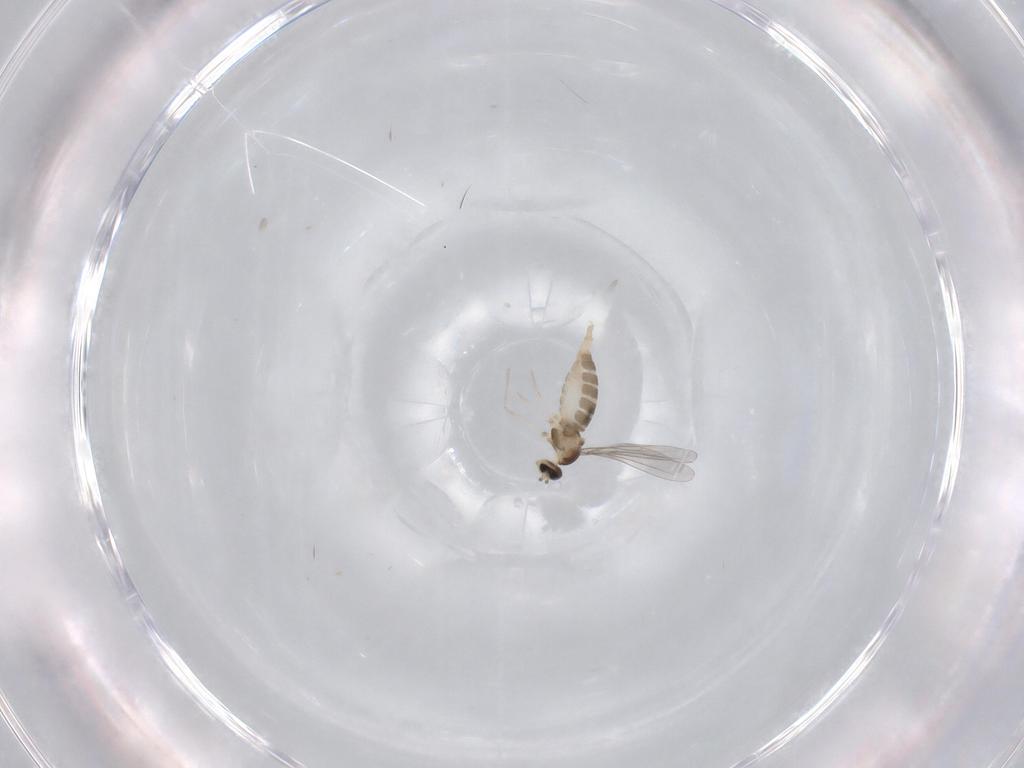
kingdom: Animalia
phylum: Arthropoda
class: Insecta
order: Diptera
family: Cecidomyiidae
